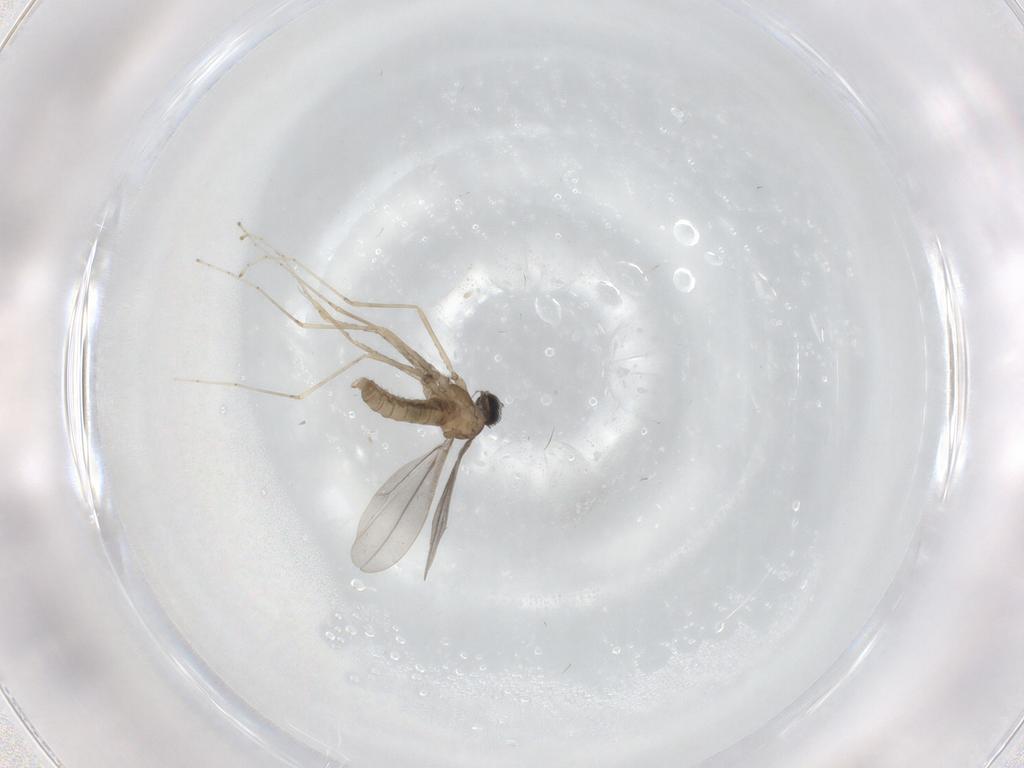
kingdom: Animalia
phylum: Arthropoda
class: Insecta
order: Diptera
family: Cecidomyiidae
